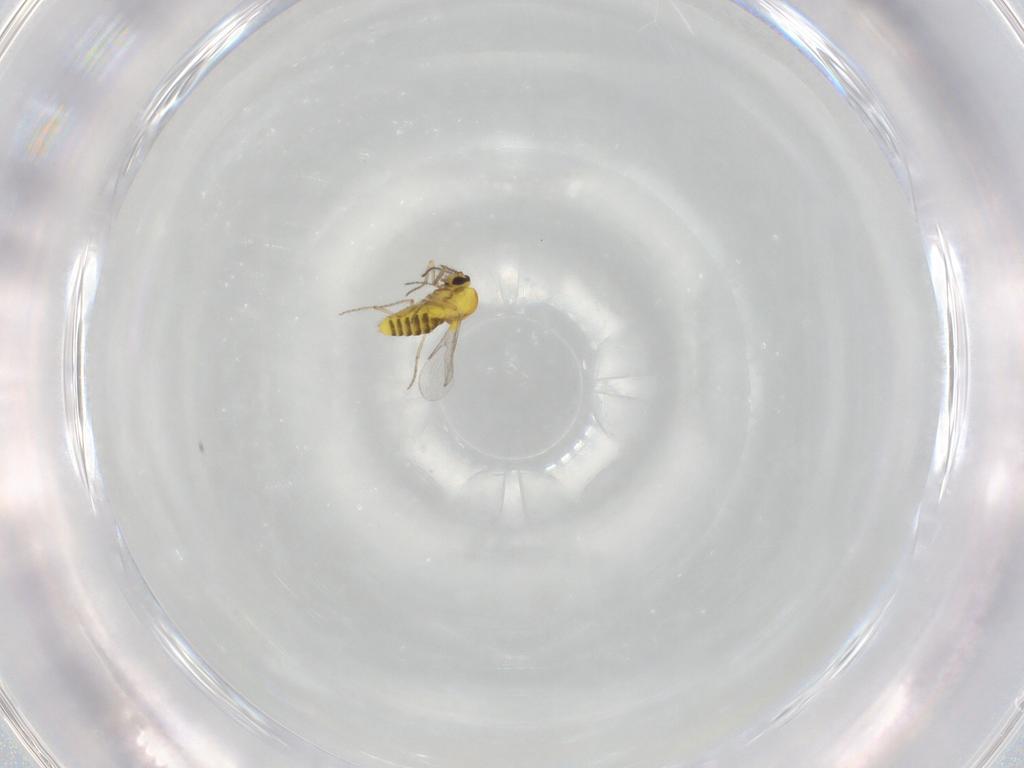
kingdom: Animalia
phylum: Arthropoda
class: Insecta
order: Diptera
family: Ceratopogonidae
